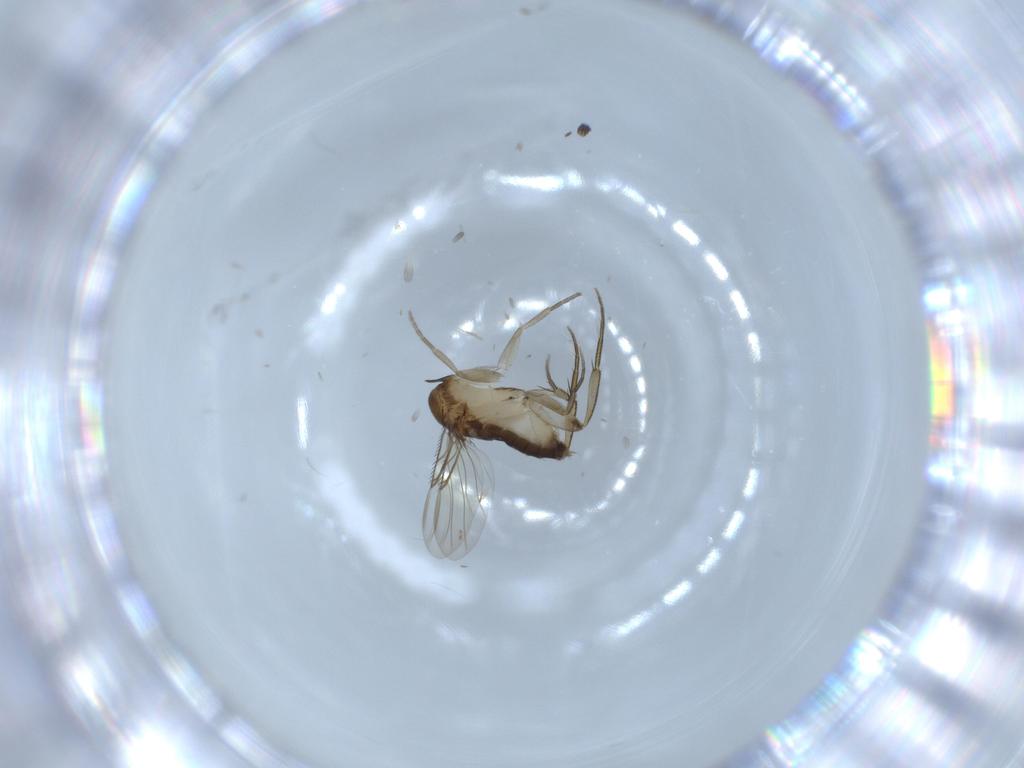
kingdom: Animalia
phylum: Arthropoda
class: Insecta
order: Diptera
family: Phoridae
